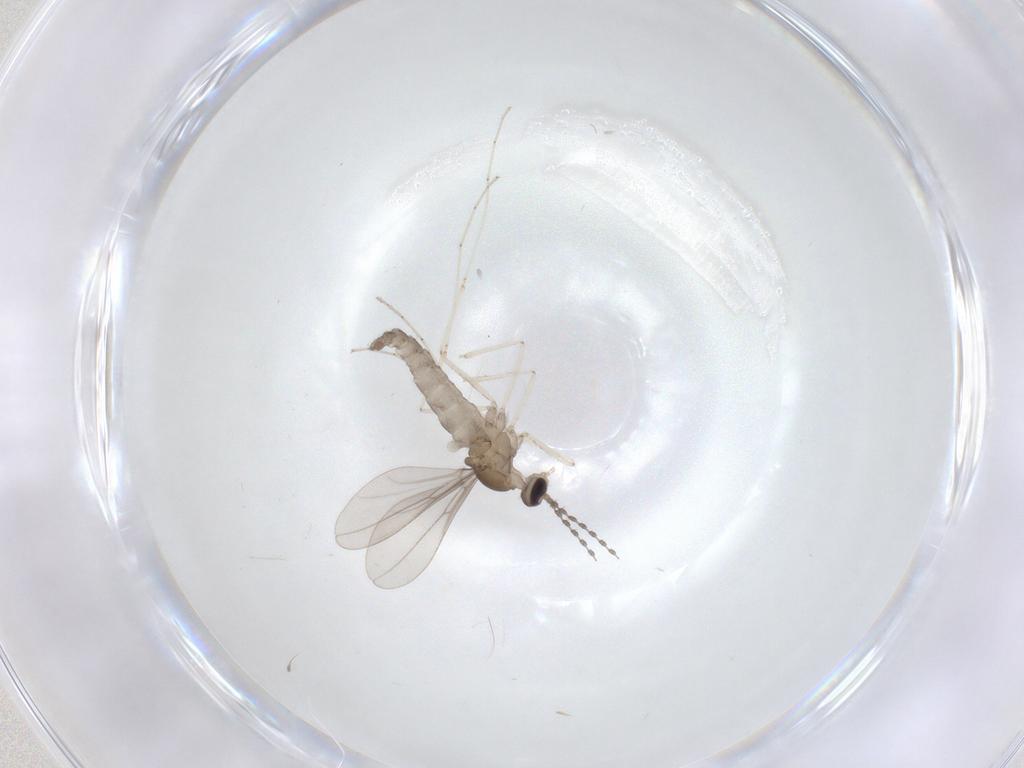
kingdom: Animalia
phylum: Arthropoda
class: Insecta
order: Diptera
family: Cecidomyiidae
